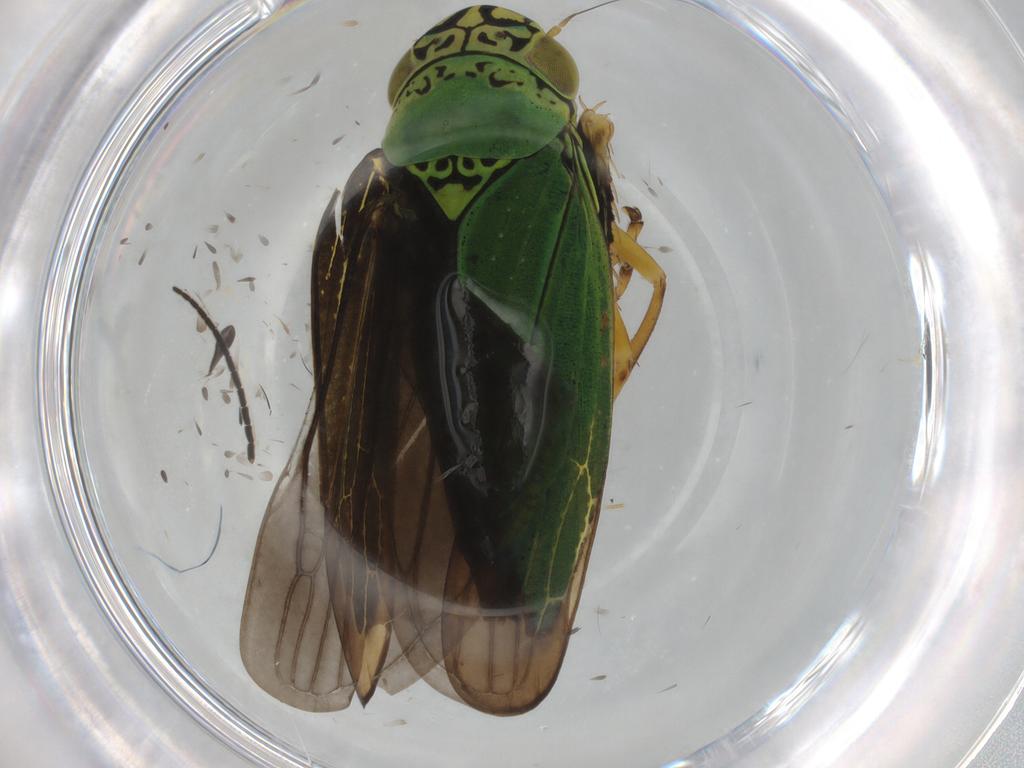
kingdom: Animalia
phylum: Arthropoda
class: Insecta
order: Hemiptera
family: Cicadellidae
